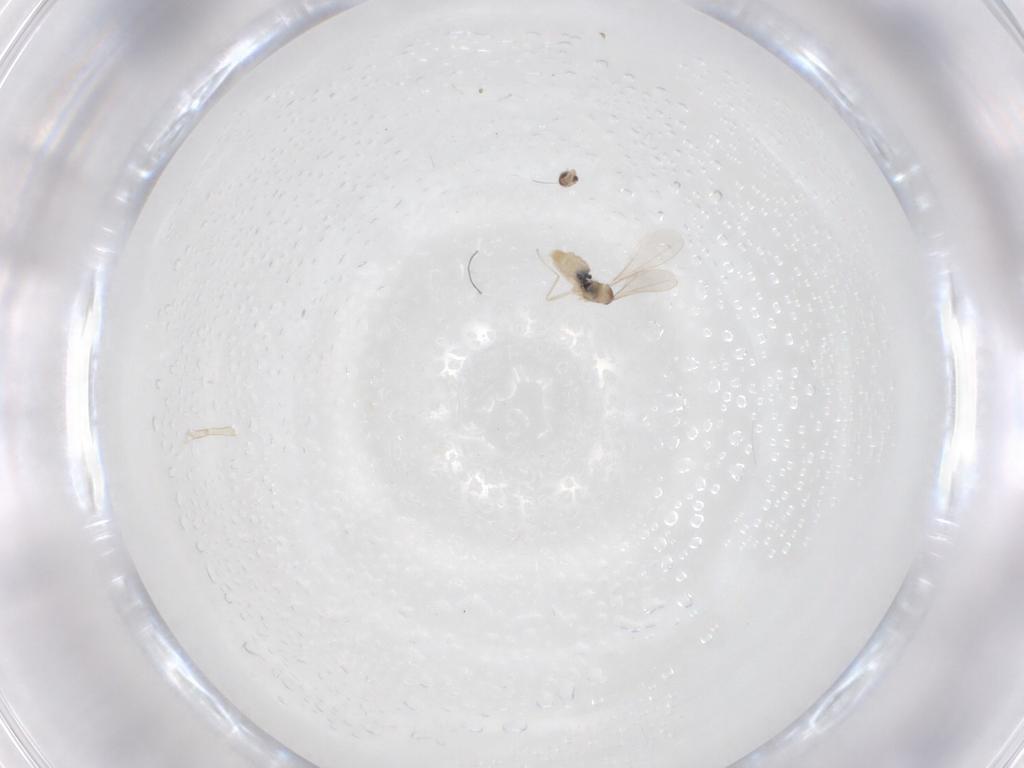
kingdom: Animalia
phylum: Arthropoda
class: Insecta
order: Diptera
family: Cecidomyiidae
